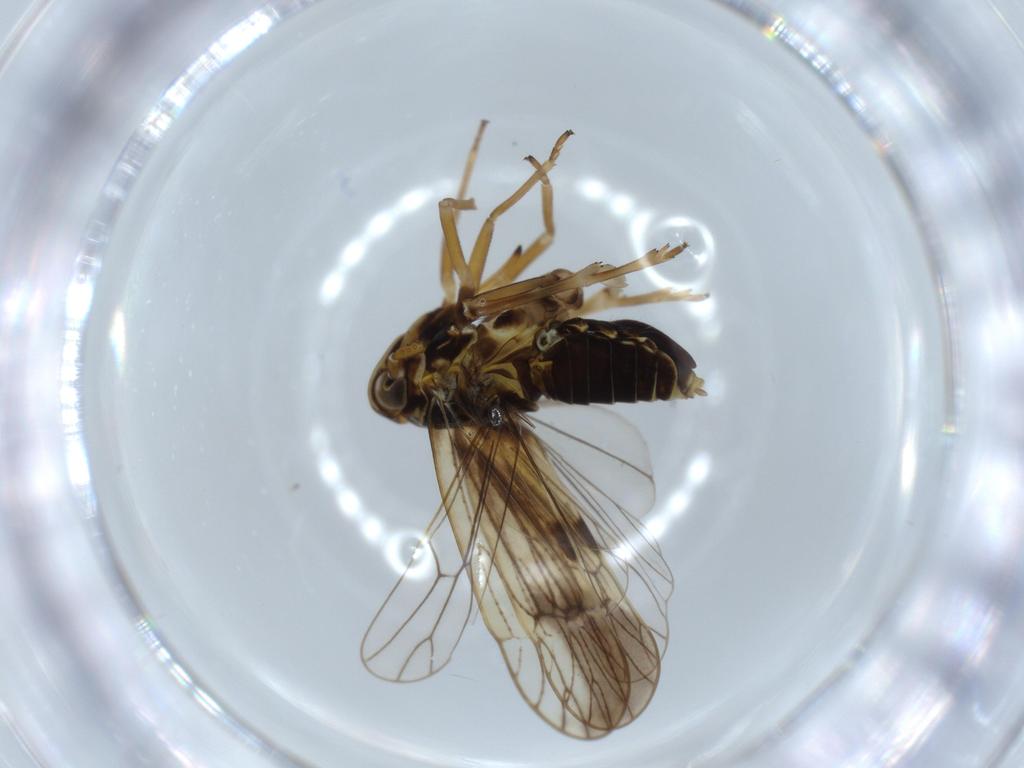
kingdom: Animalia
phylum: Arthropoda
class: Insecta
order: Hemiptera
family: Delphacidae
